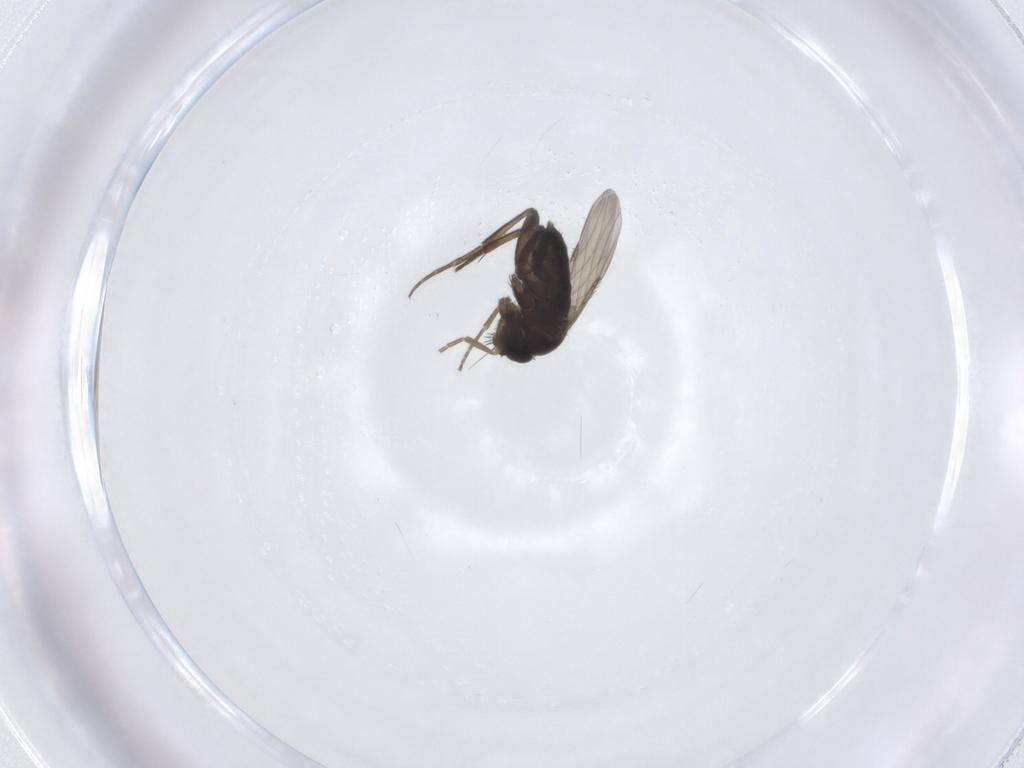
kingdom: Animalia
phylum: Arthropoda
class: Insecta
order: Diptera
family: Phoridae
